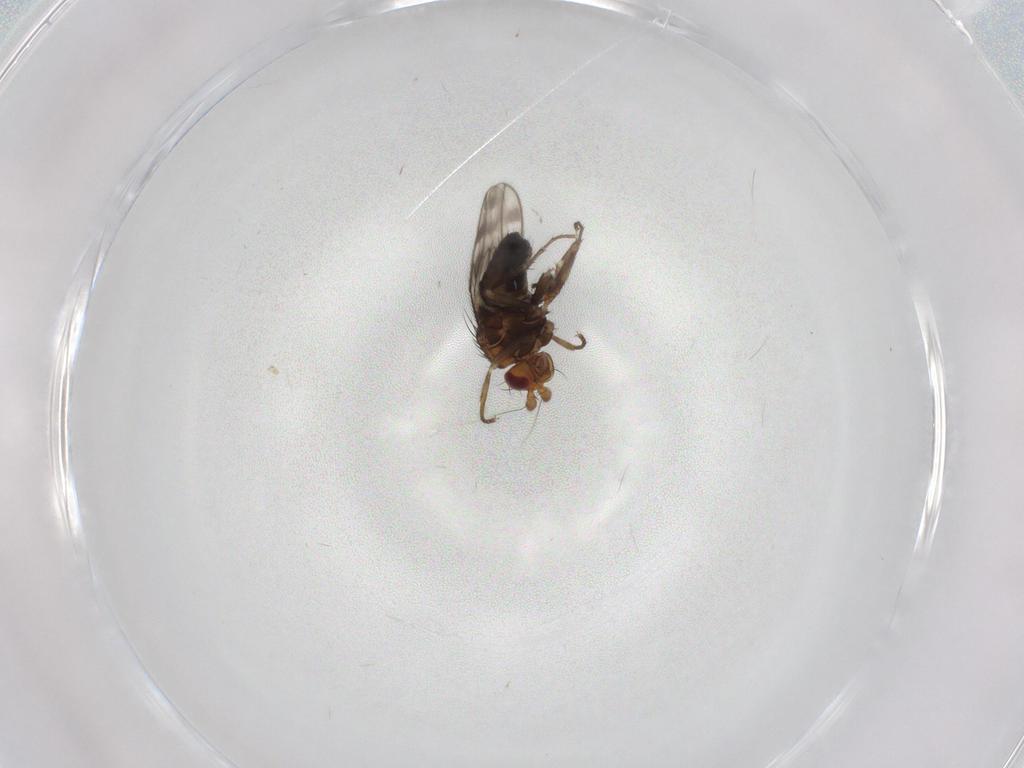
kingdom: Animalia
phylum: Arthropoda
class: Insecta
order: Diptera
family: Sphaeroceridae
